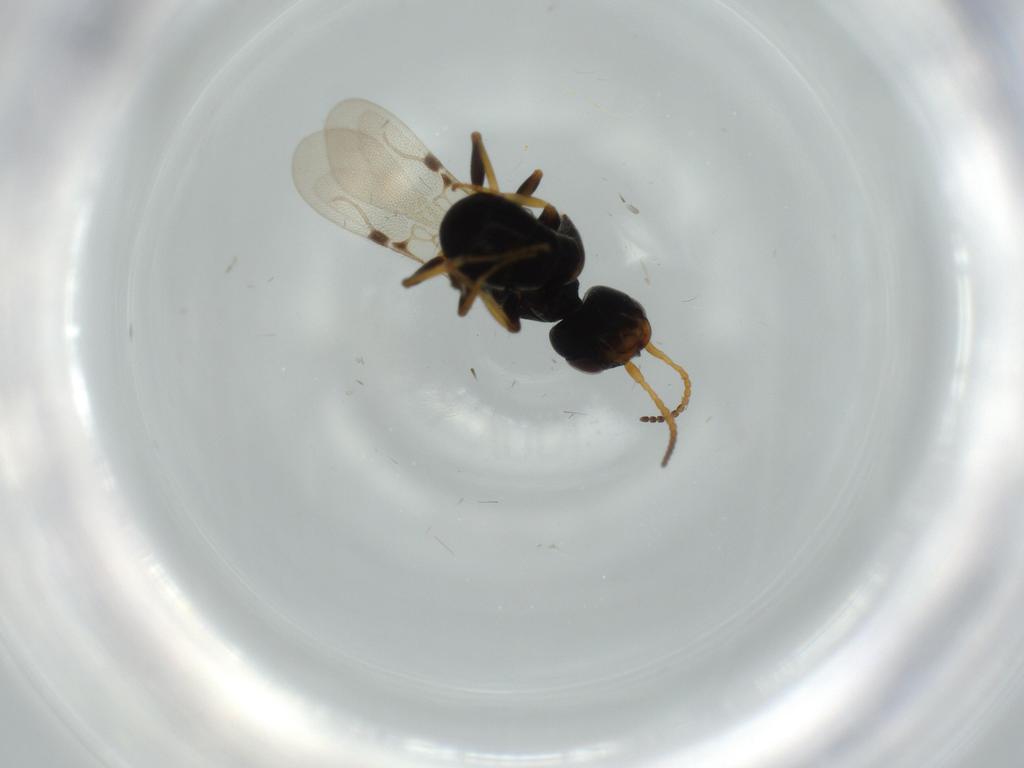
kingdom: Animalia
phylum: Arthropoda
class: Insecta
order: Hymenoptera
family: Bethylidae
